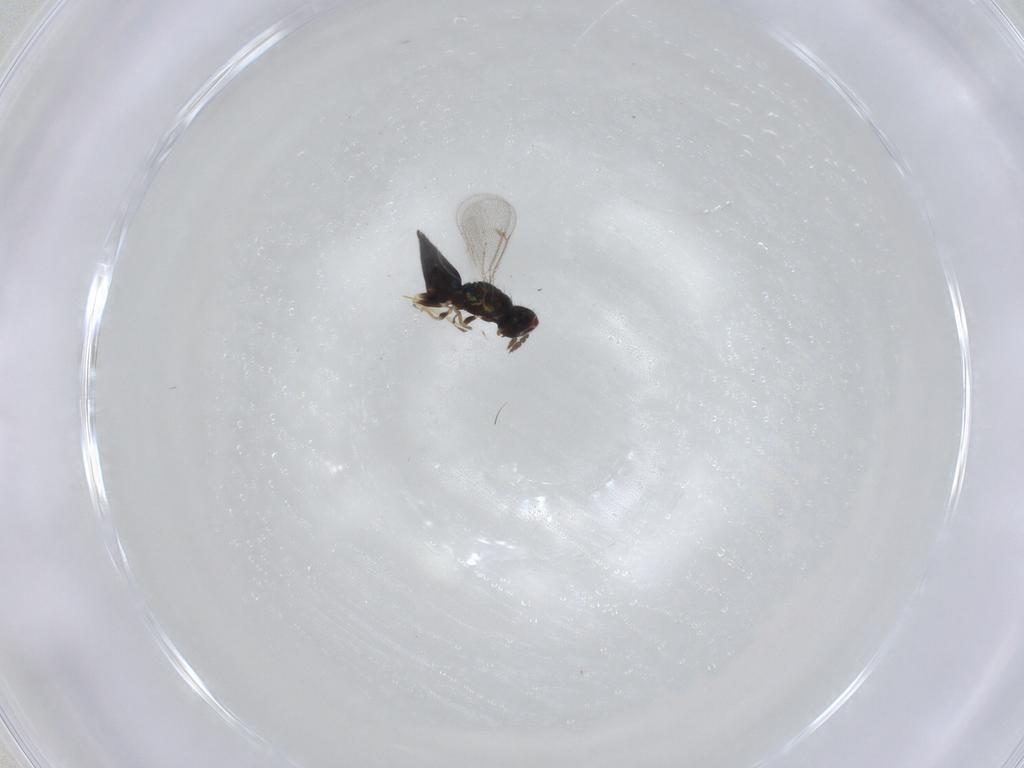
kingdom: Animalia
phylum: Arthropoda
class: Insecta
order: Hymenoptera
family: Eulophidae
